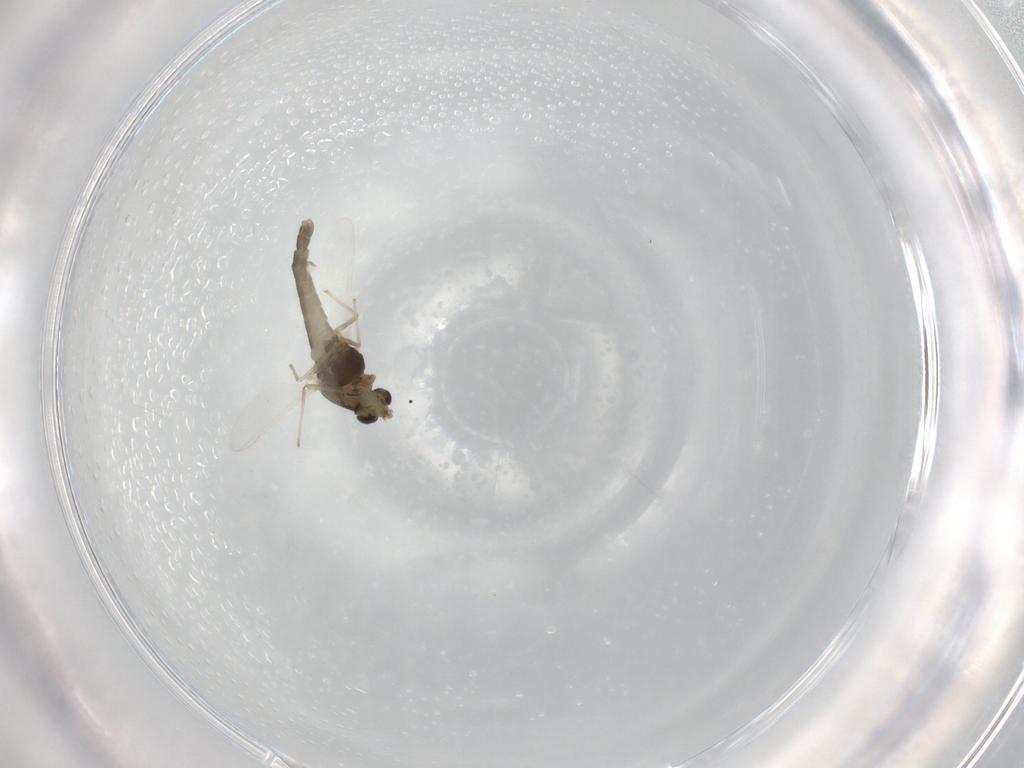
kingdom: Animalia
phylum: Arthropoda
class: Insecta
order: Diptera
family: Chironomidae
